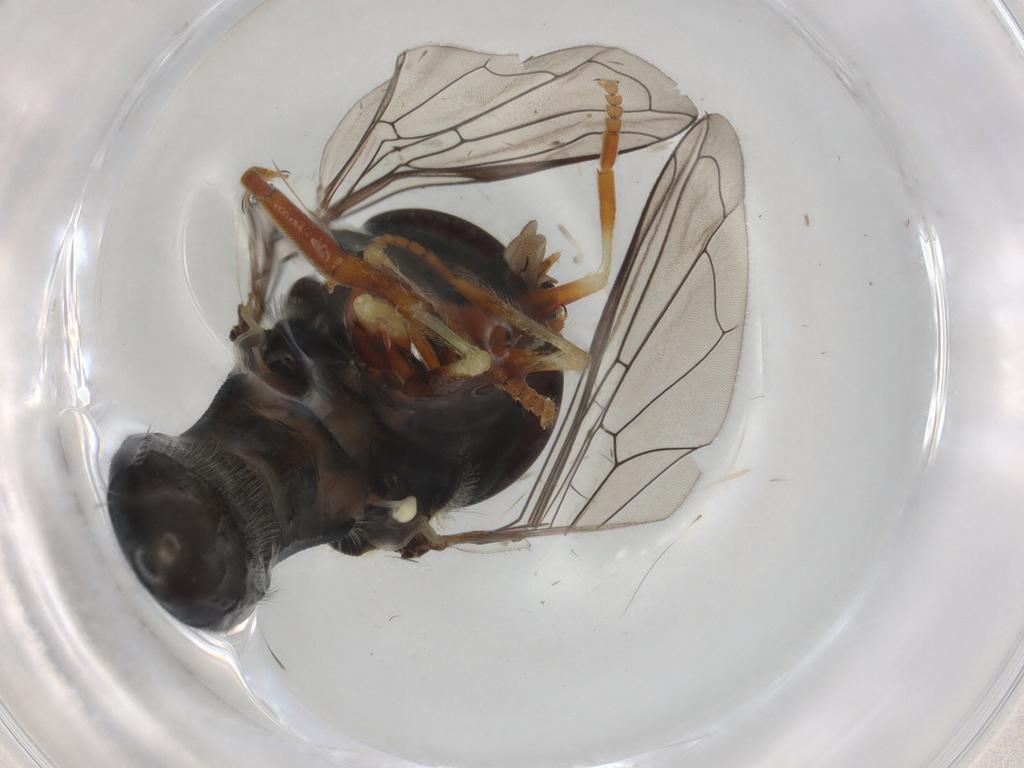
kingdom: Animalia
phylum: Arthropoda
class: Insecta
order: Diptera
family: Syrphidae
